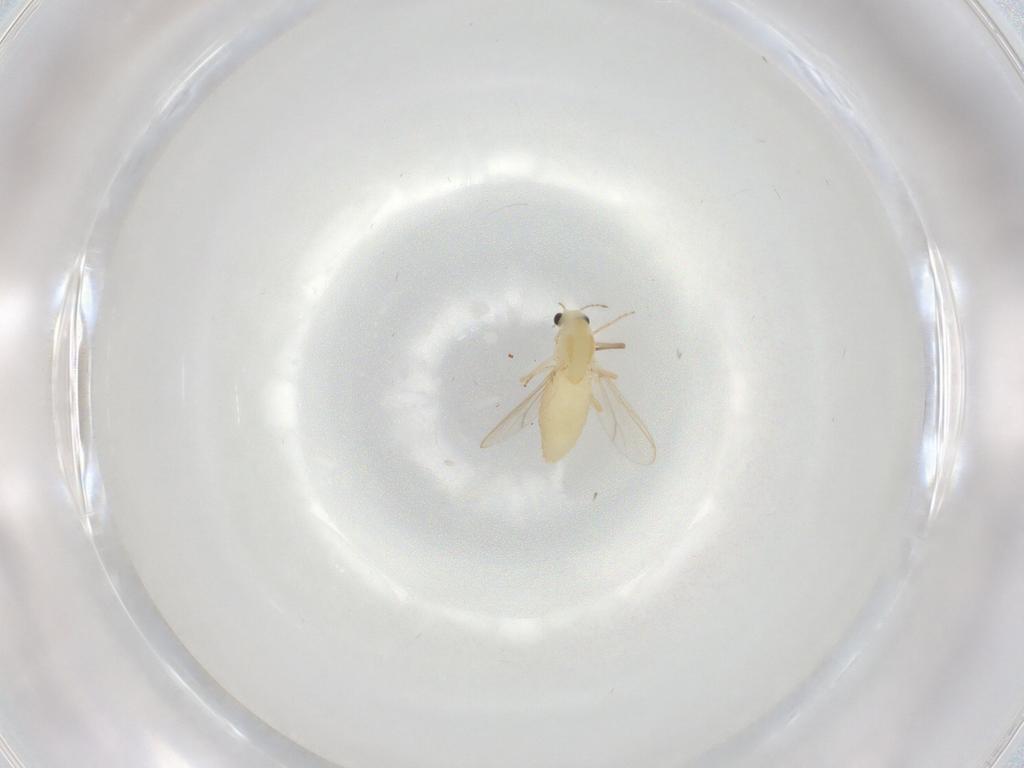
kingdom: Animalia
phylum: Arthropoda
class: Insecta
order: Diptera
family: Chironomidae
